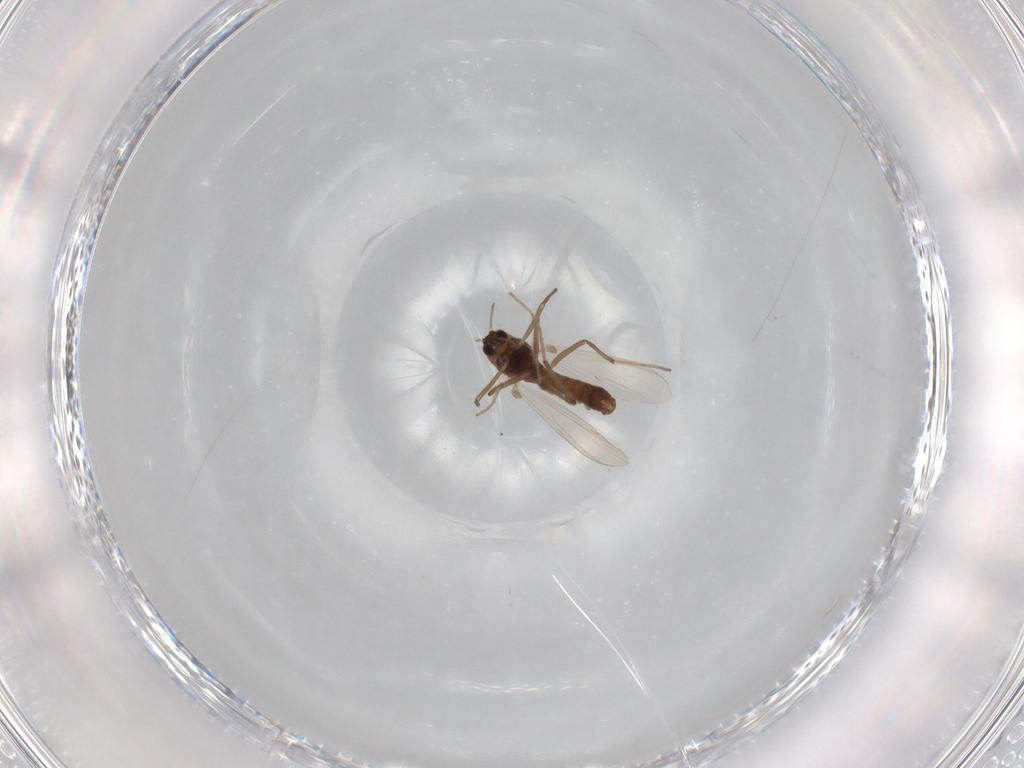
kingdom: Animalia
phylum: Arthropoda
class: Insecta
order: Diptera
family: Chironomidae
